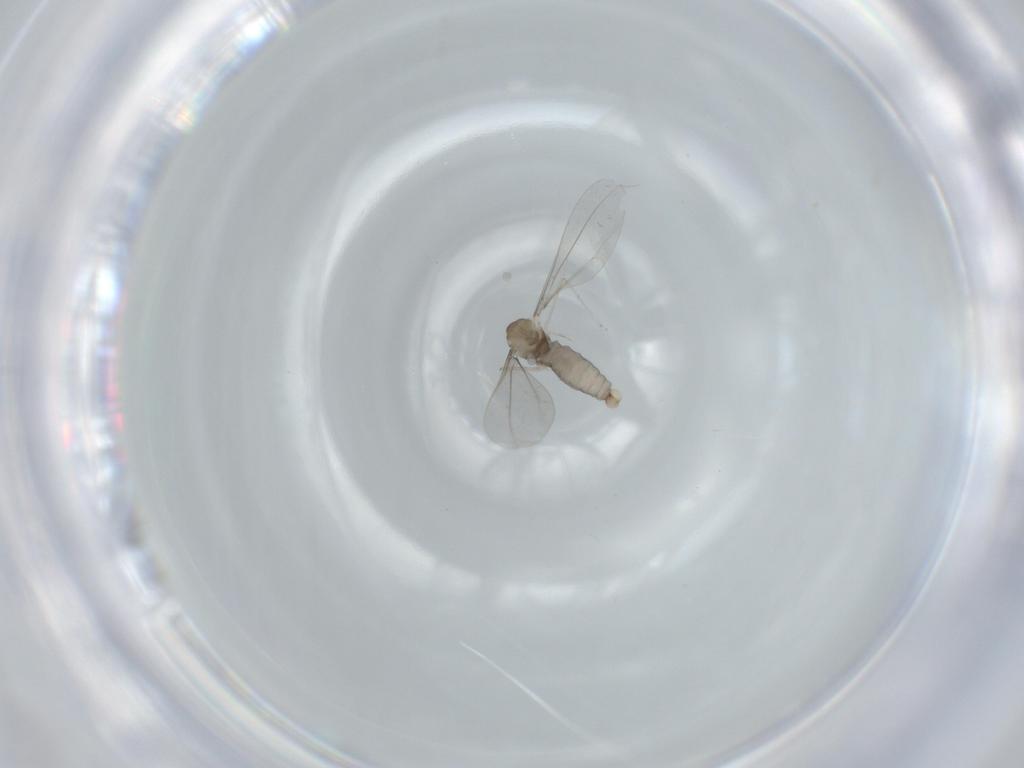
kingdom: Animalia
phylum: Arthropoda
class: Insecta
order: Diptera
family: Cecidomyiidae
